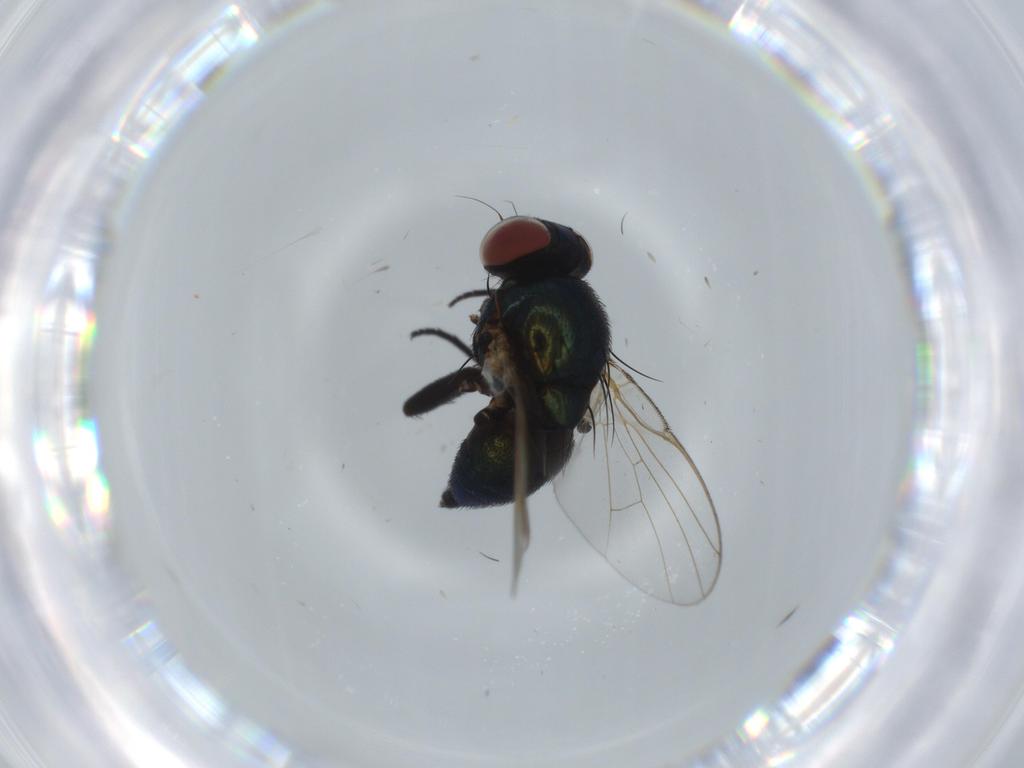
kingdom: Animalia
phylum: Arthropoda
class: Insecta
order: Diptera
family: Agromyzidae
